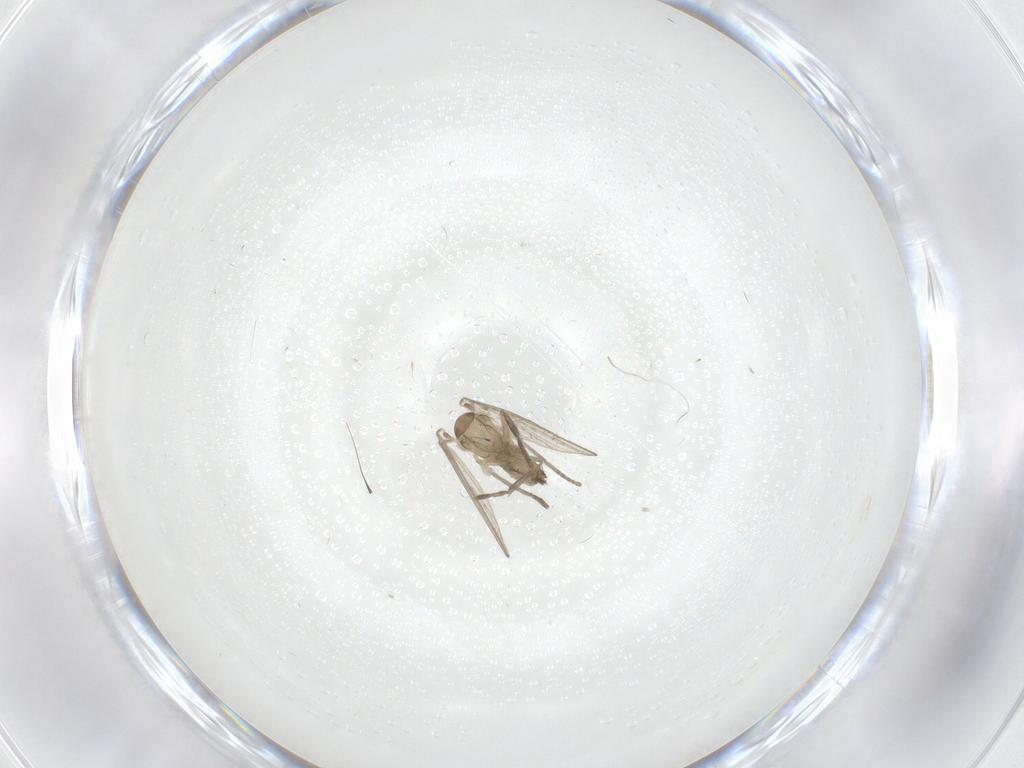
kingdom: Animalia
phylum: Arthropoda
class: Insecta
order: Diptera
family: Psychodidae
